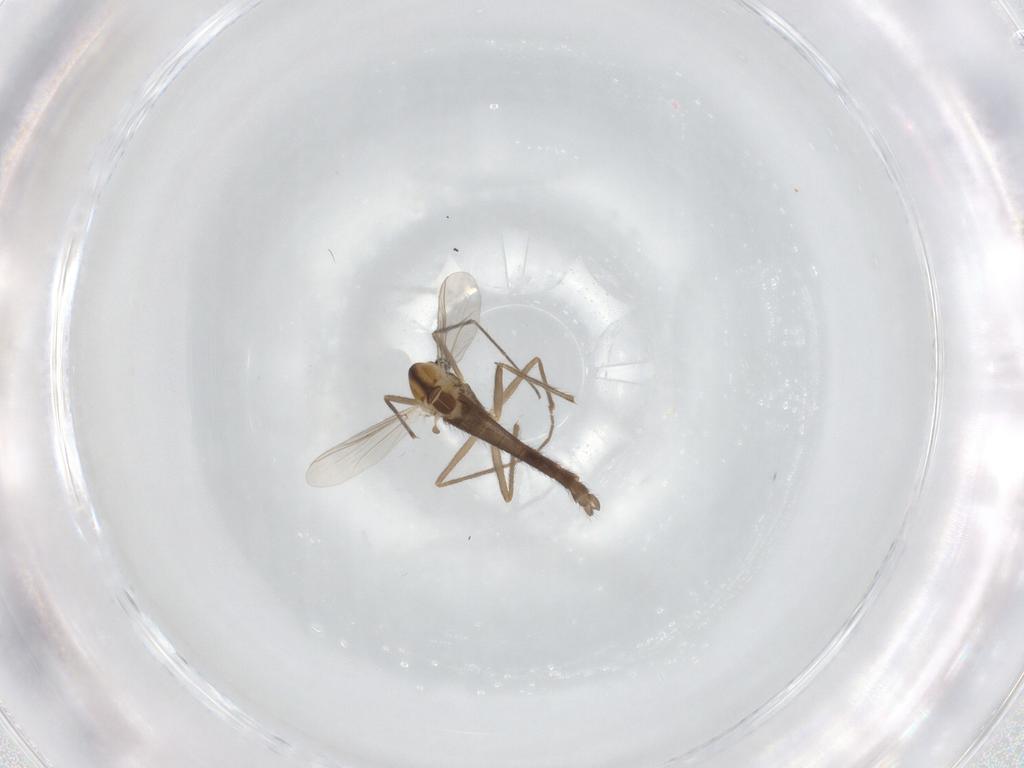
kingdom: Animalia
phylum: Arthropoda
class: Insecta
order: Diptera
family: Chironomidae
